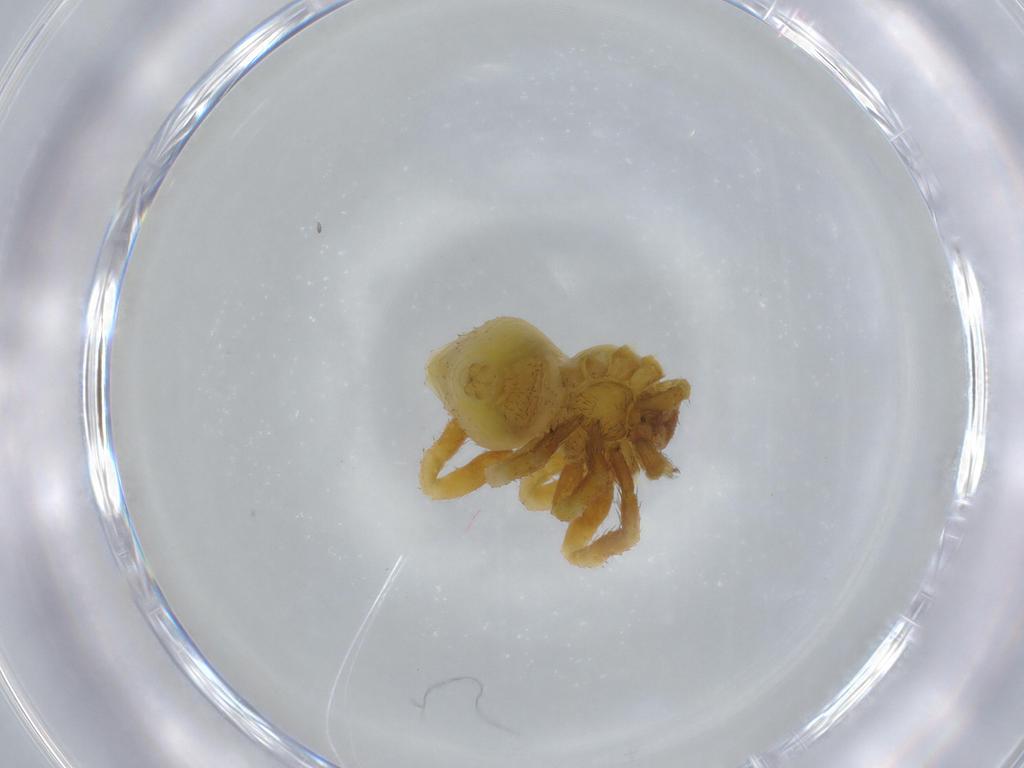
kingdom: Animalia
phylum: Arthropoda
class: Arachnida
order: Araneae
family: Thomisidae
